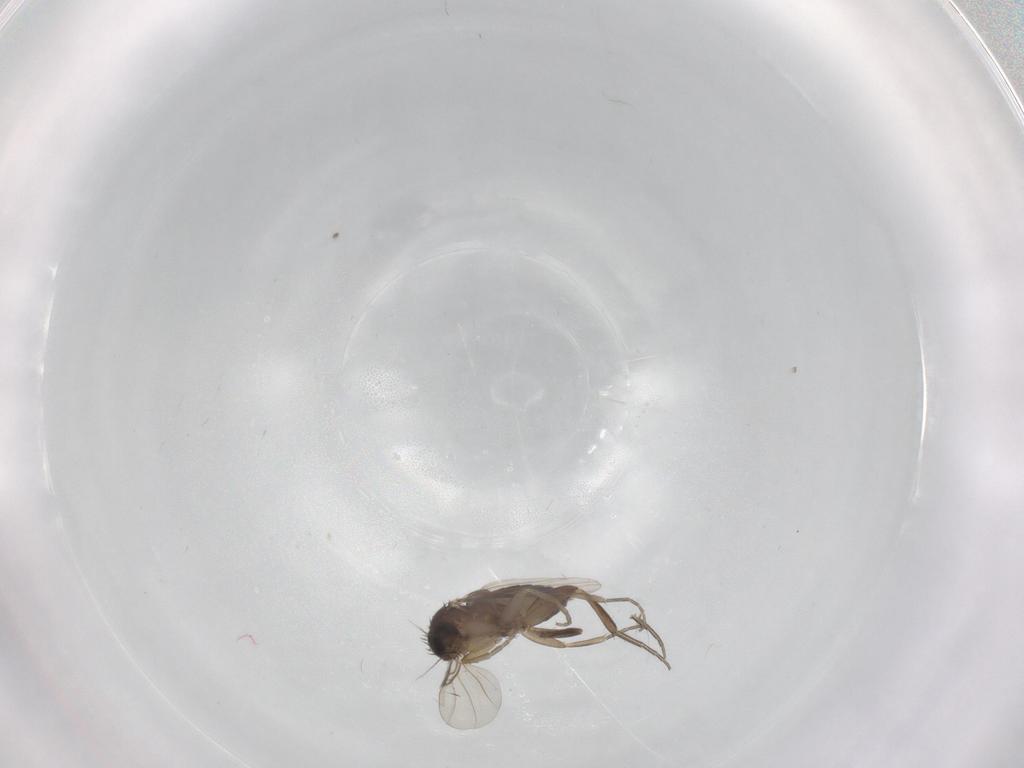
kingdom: Animalia
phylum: Arthropoda
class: Insecta
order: Diptera
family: Phoridae
